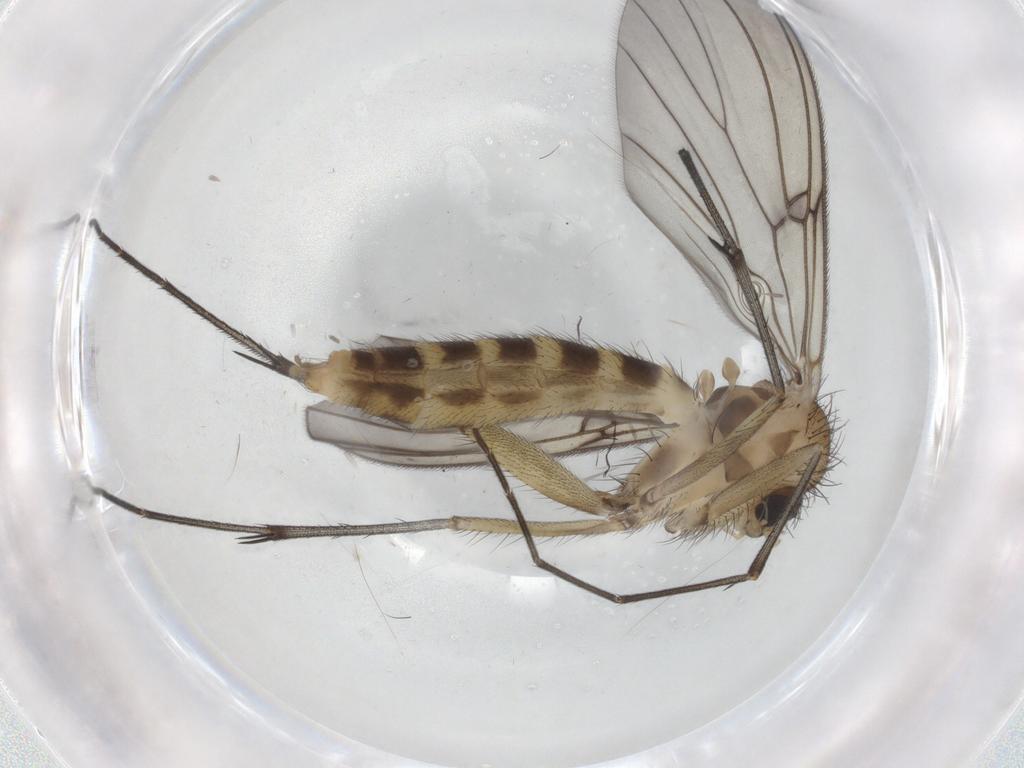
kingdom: Animalia
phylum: Arthropoda
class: Insecta
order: Diptera
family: Mycetophilidae
